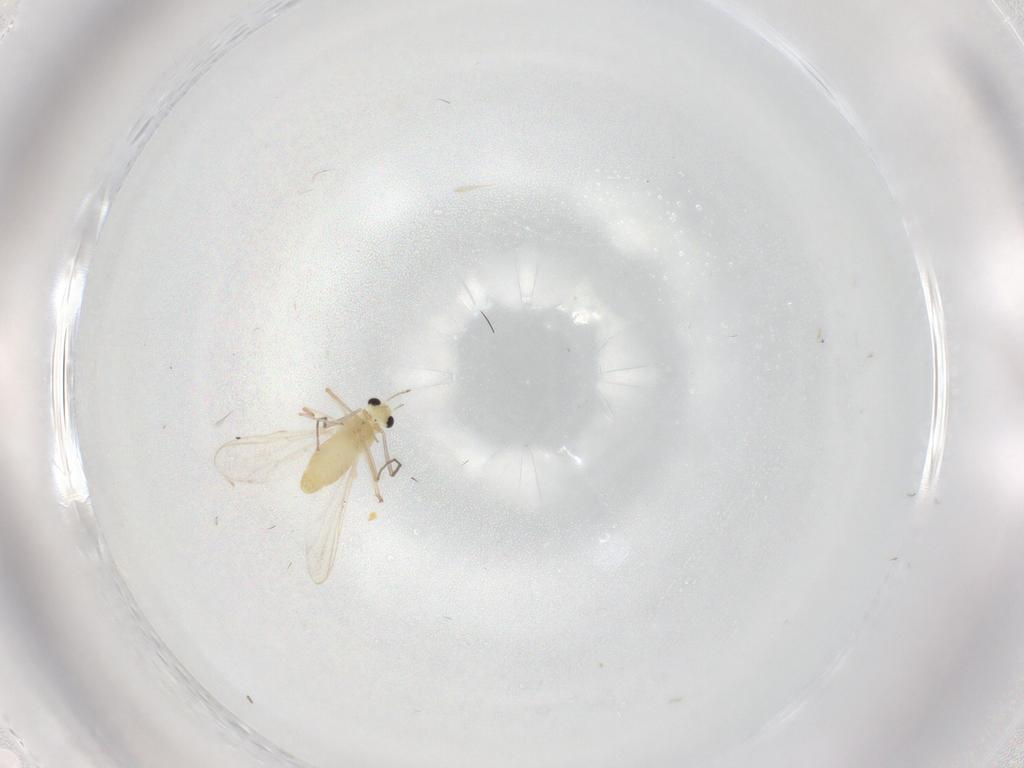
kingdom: Animalia
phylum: Arthropoda
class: Insecta
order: Diptera
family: Chironomidae
